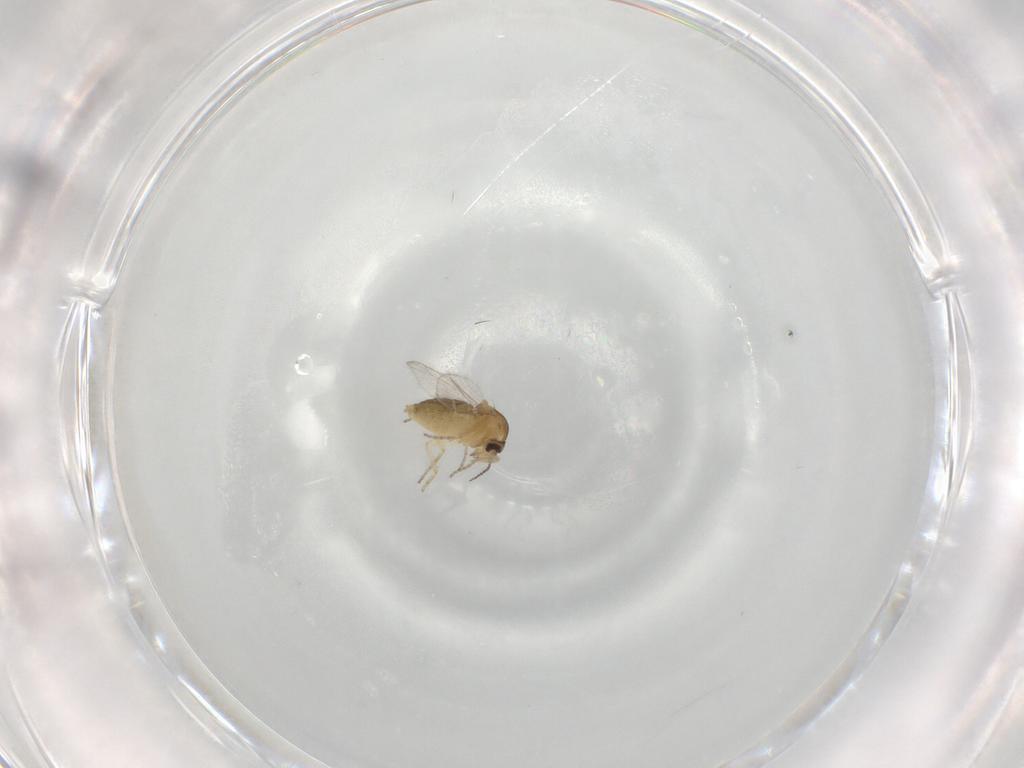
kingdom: Animalia
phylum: Arthropoda
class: Insecta
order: Diptera
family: Ceratopogonidae
